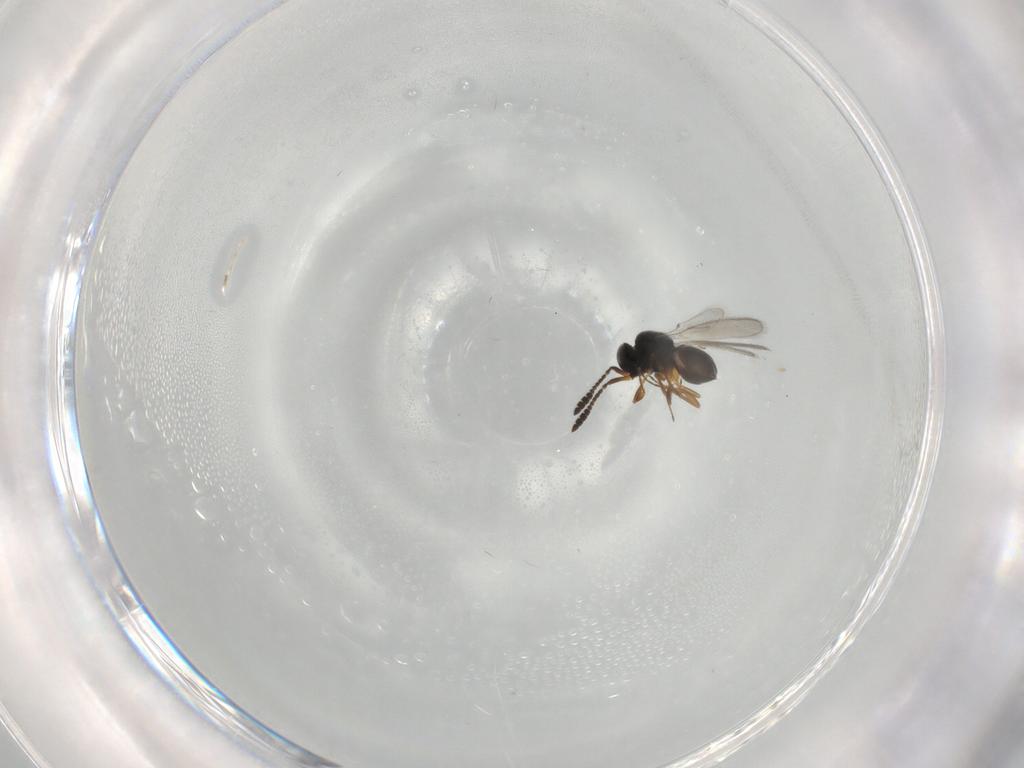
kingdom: Animalia
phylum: Arthropoda
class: Insecta
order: Hymenoptera
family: Scelionidae
